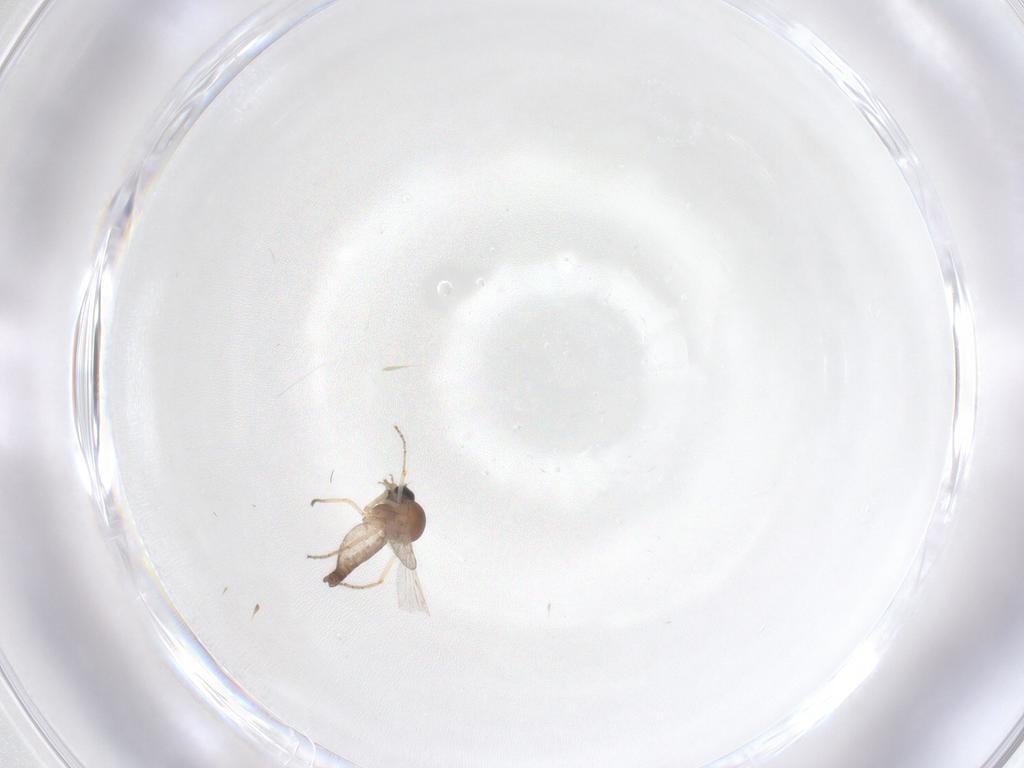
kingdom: Animalia
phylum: Arthropoda
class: Insecta
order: Diptera
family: Ceratopogonidae
